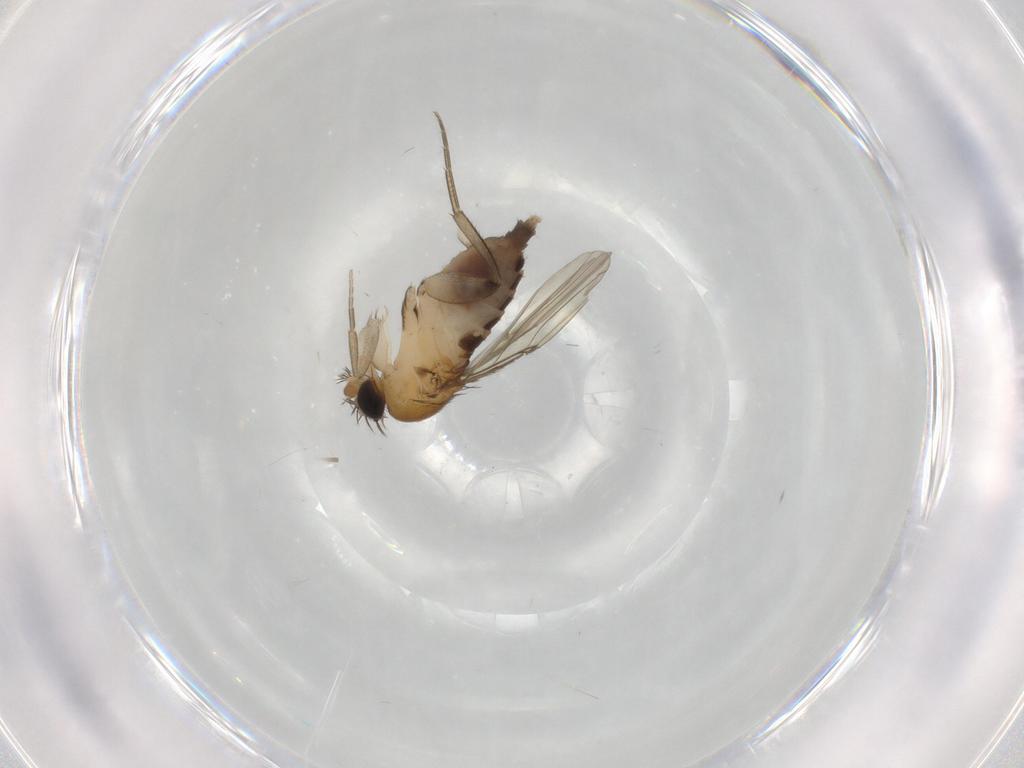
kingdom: Animalia
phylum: Arthropoda
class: Insecta
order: Diptera
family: Phoridae
